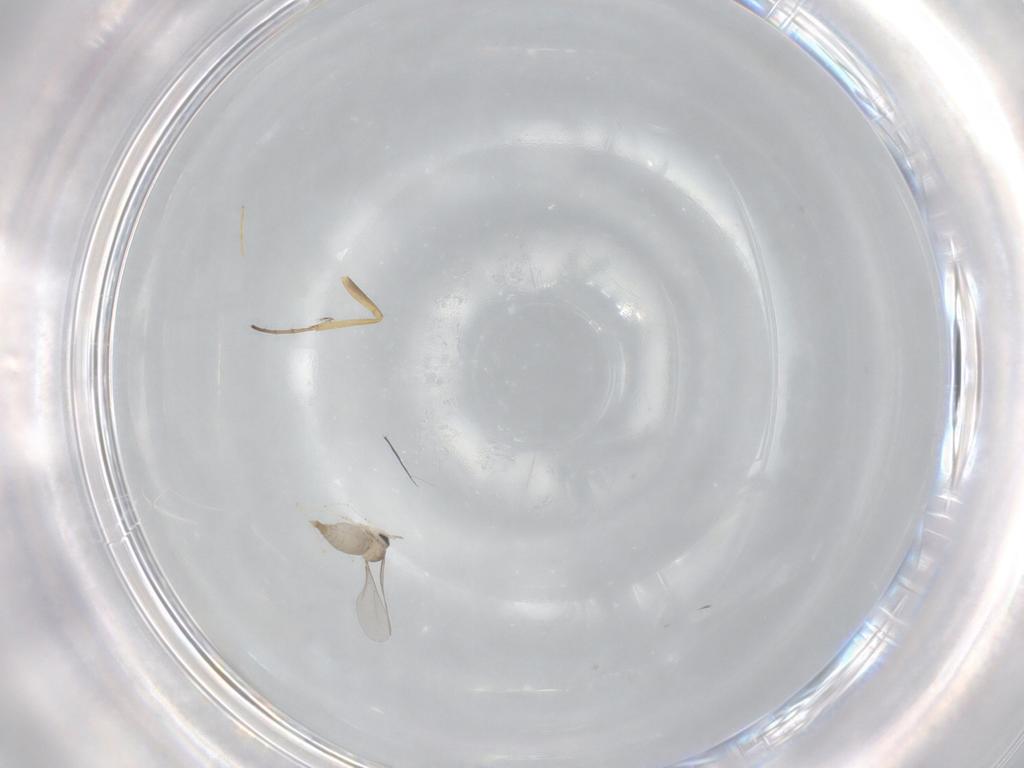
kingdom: Animalia
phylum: Arthropoda
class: Insecta
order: Diptera
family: Cecidomyiidae
